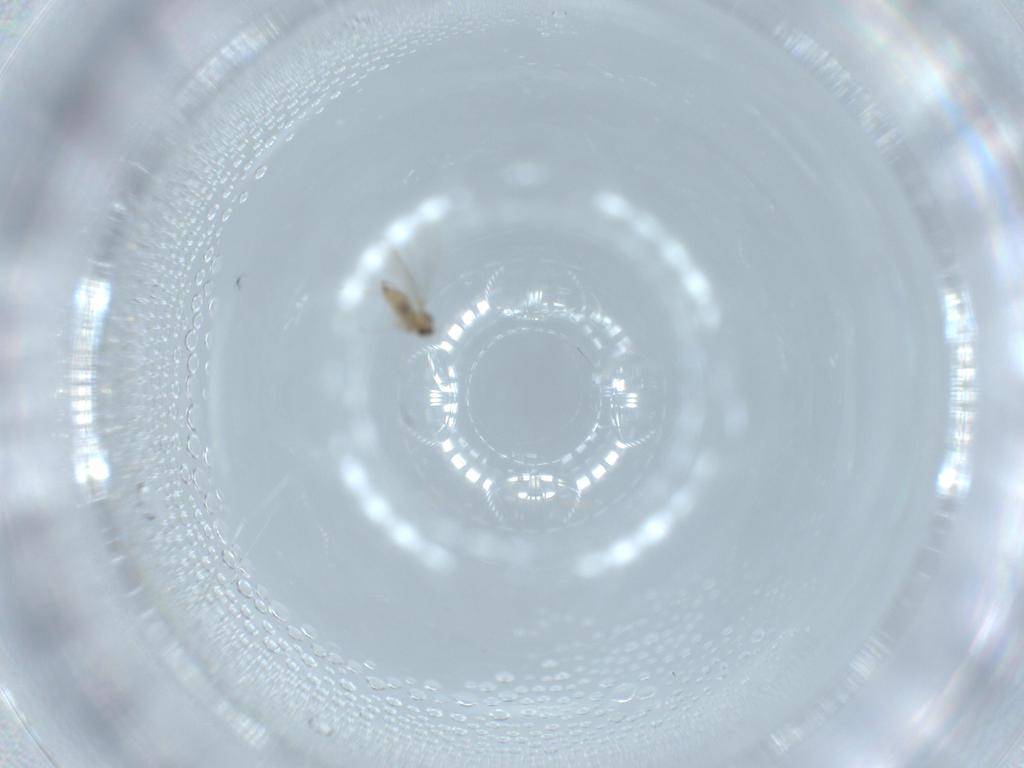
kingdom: Animalia
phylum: Arthropoda
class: Insecta
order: Diptera
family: Cecidomyiidae
